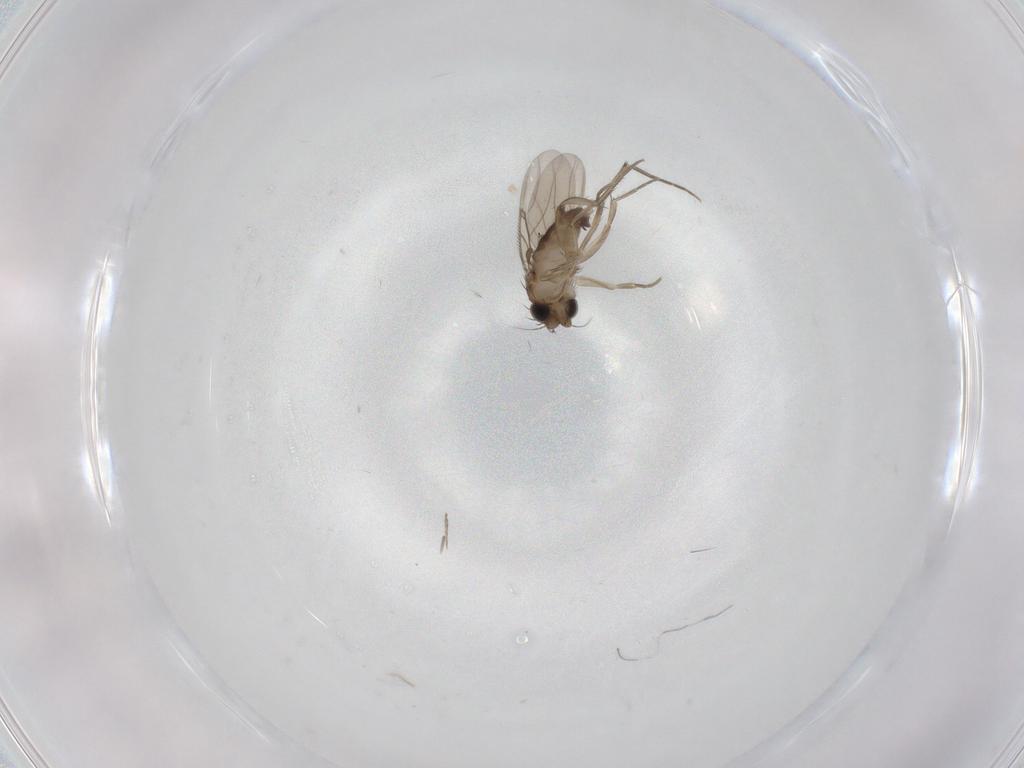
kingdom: Animalia
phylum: Arthropoda
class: Insecta
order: Diptera
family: Phoridae
